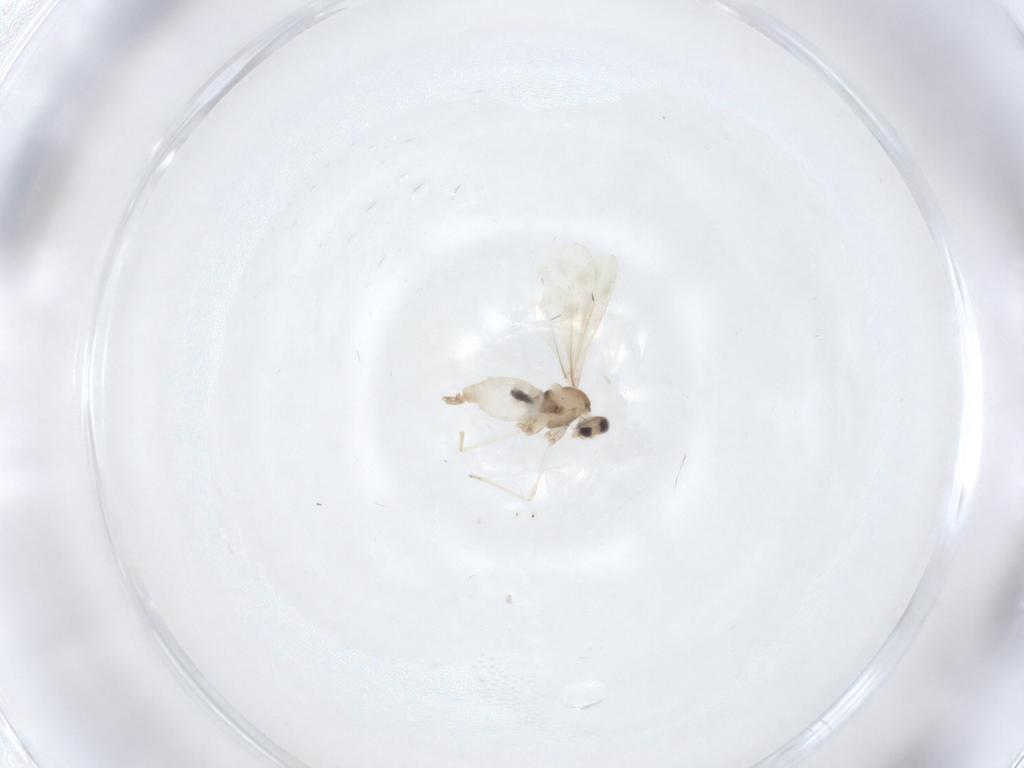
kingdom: Animalia
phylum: Arthropoda
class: Insecta
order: Diptera
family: Cecidomyiidae
